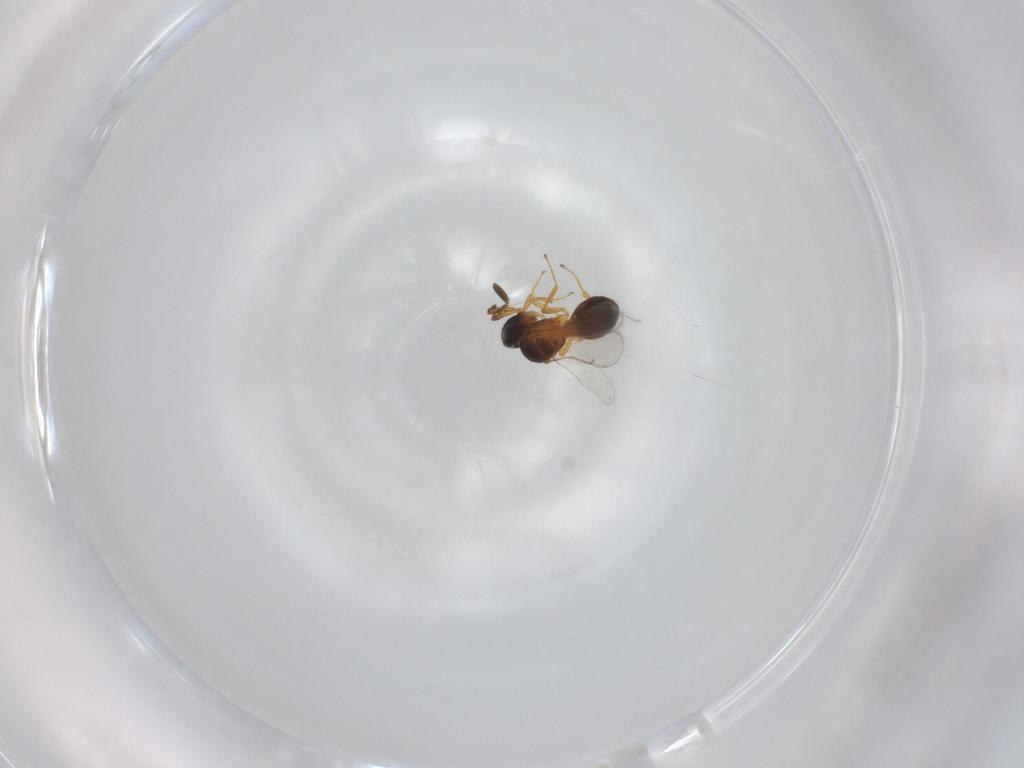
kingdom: Animalia
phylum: Arthropoda
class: Insecta
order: Hymenoptera
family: Scelionidae
